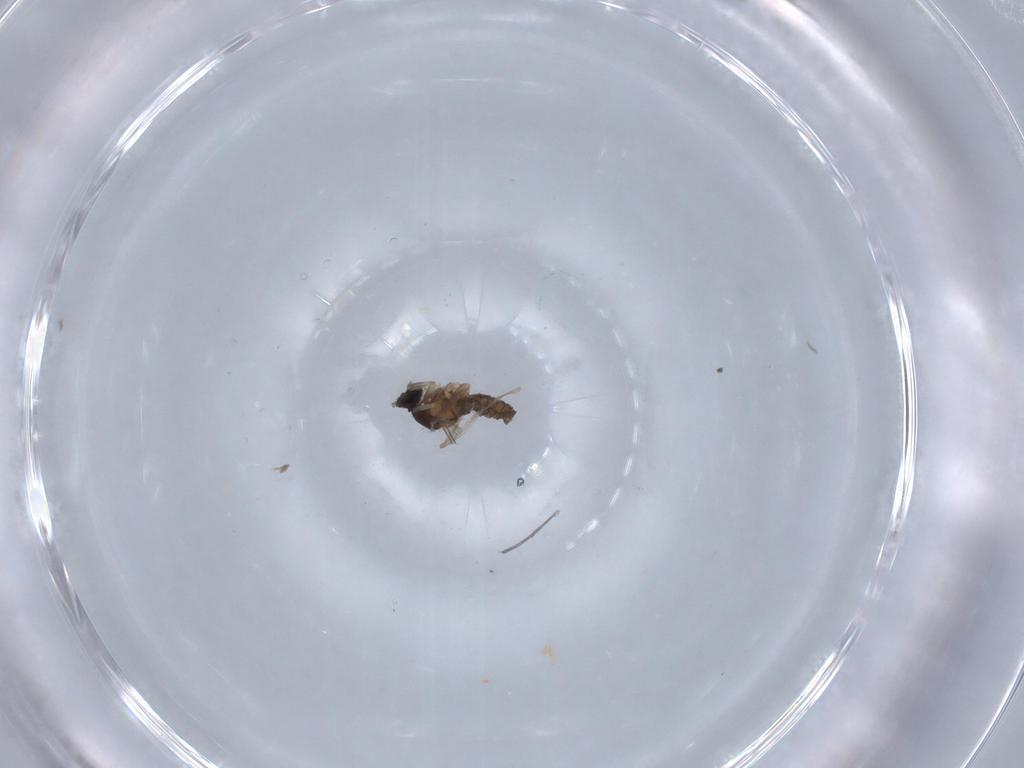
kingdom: Animalia
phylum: Arthropoda
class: Insecta
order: Diptera
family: Cecidomyiidae
